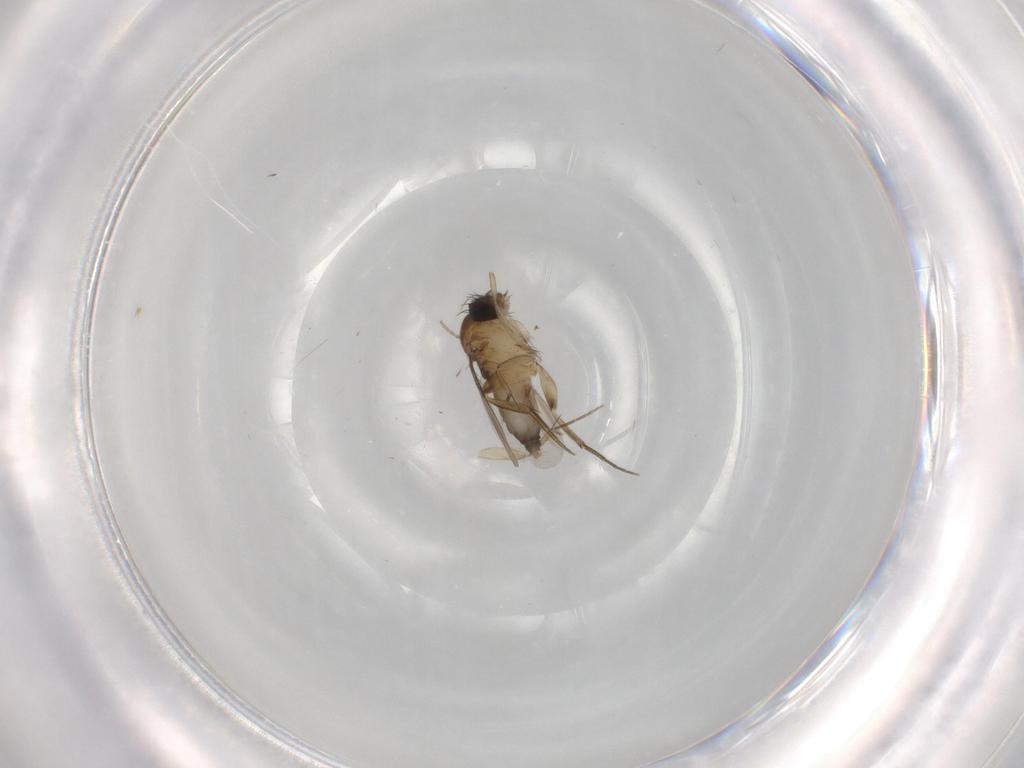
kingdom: Animalia
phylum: Arthropoda
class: Insecta
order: Diptera
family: Phoridae
